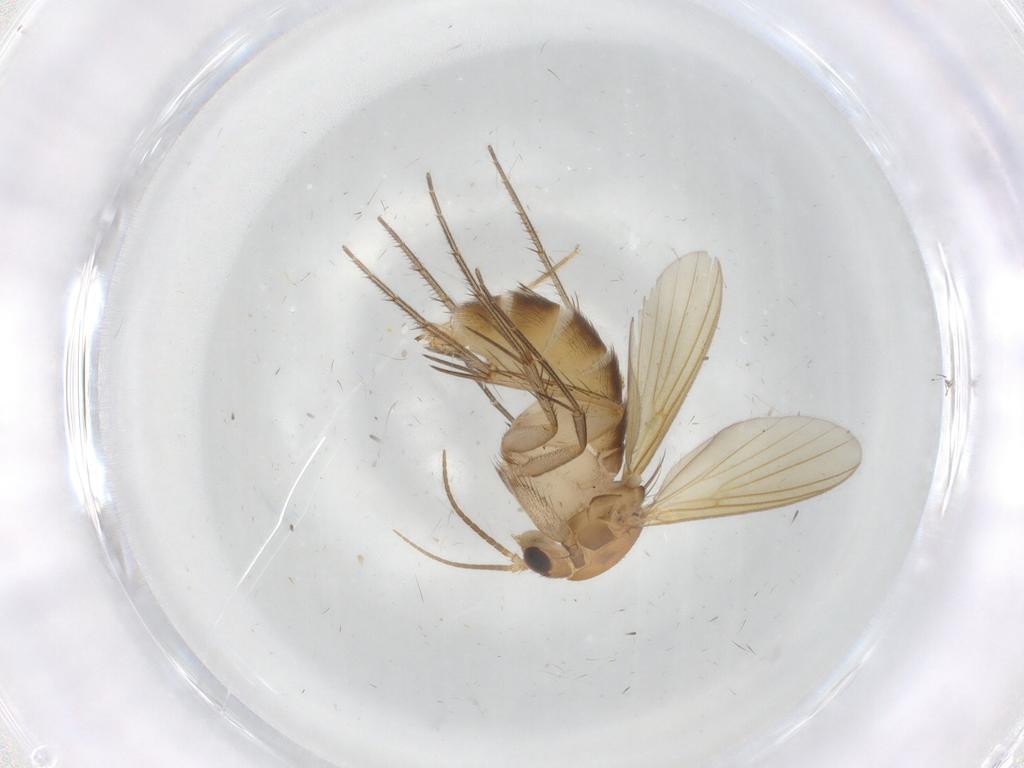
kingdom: Animalia
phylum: Arthropoda
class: Insecta
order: Diptera
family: Mycetophilidae
